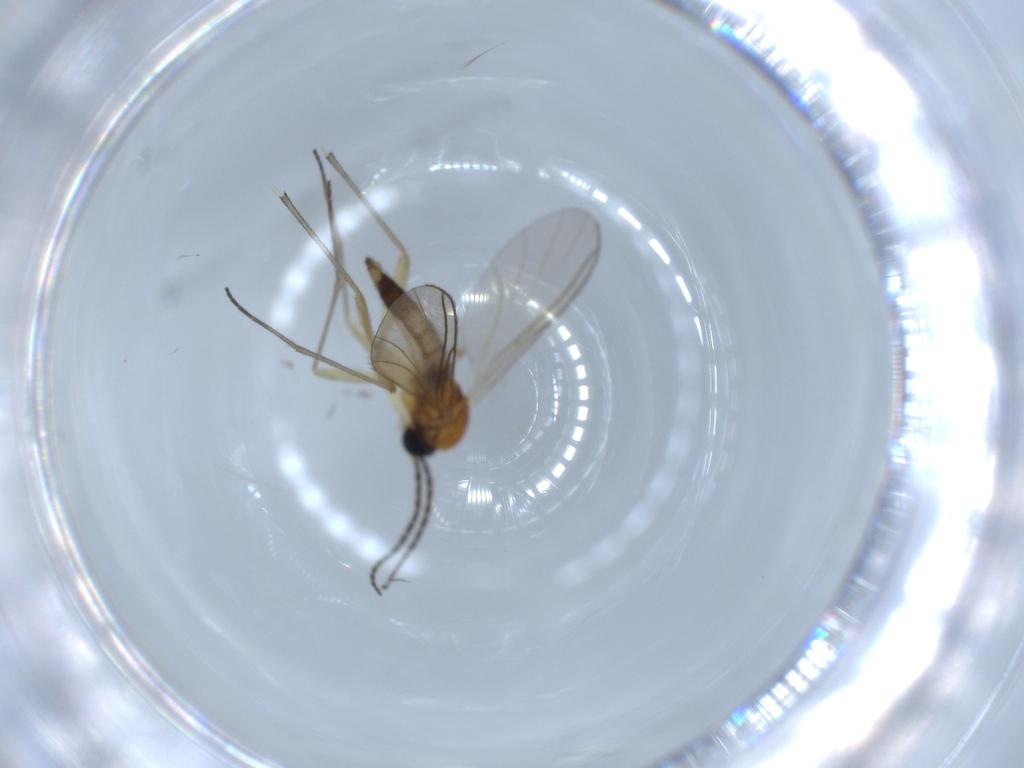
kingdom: Animalia
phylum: Arthropoda
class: Insecta
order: Diptera
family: Sciaridae
